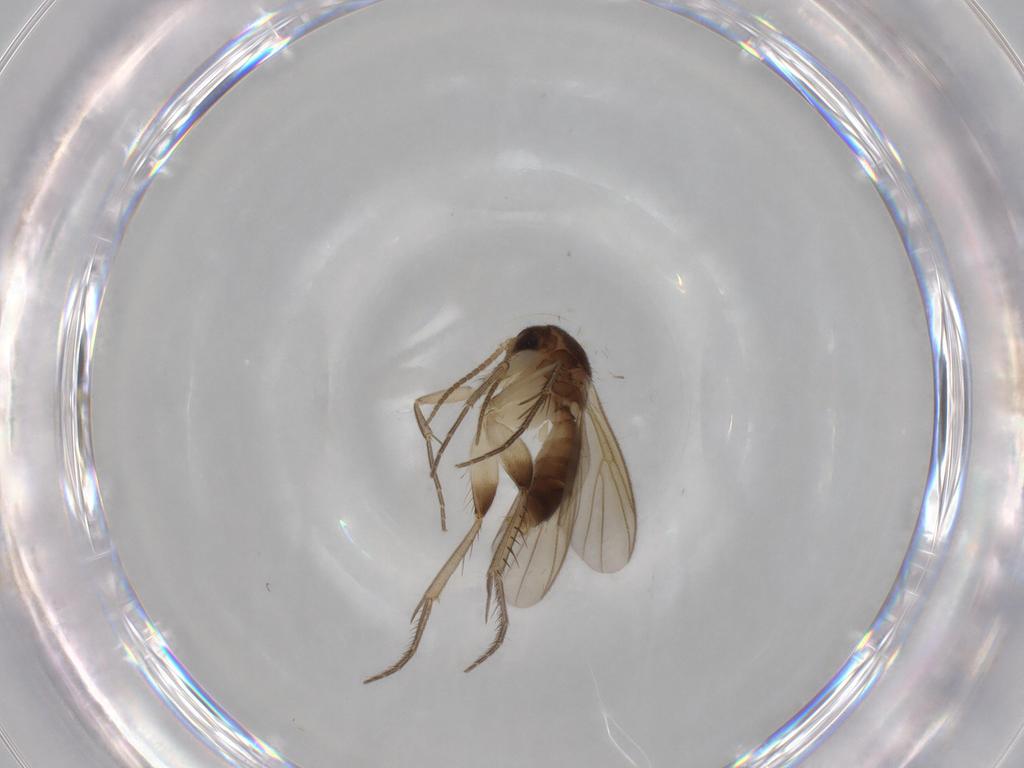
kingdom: Animalia
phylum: Arthropoda
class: Insecta
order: Diptera
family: Mycetophilidae
